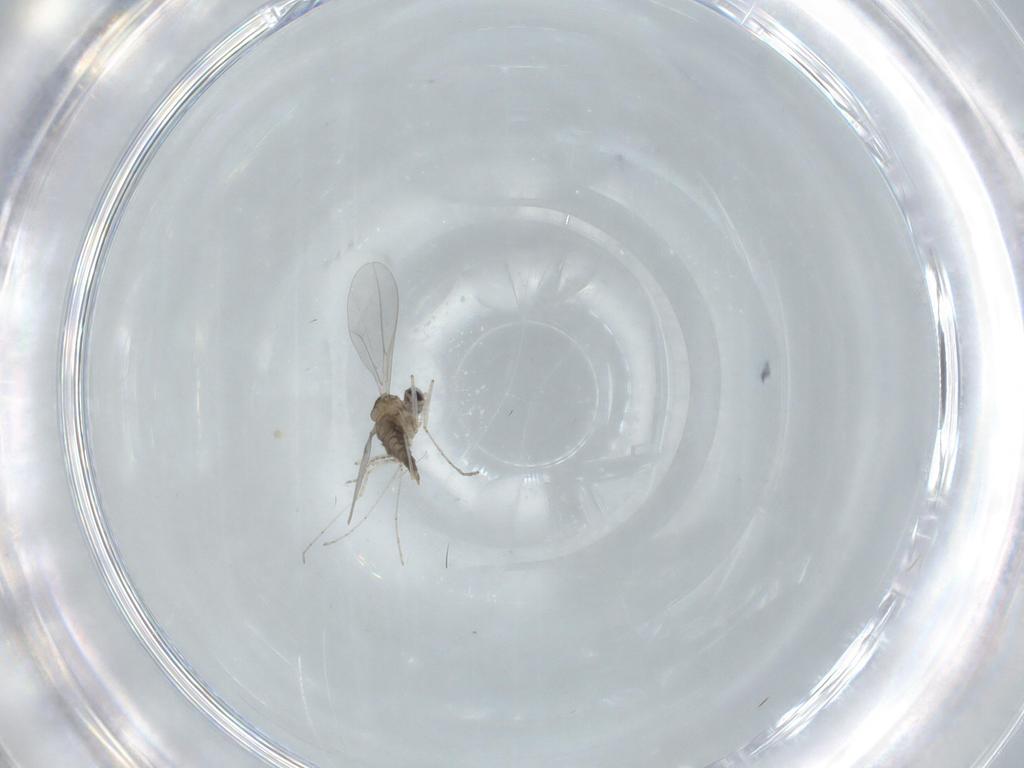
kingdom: Animalia
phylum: Arthropoda
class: Insecta
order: Diptera
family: Cecidomyiidae
